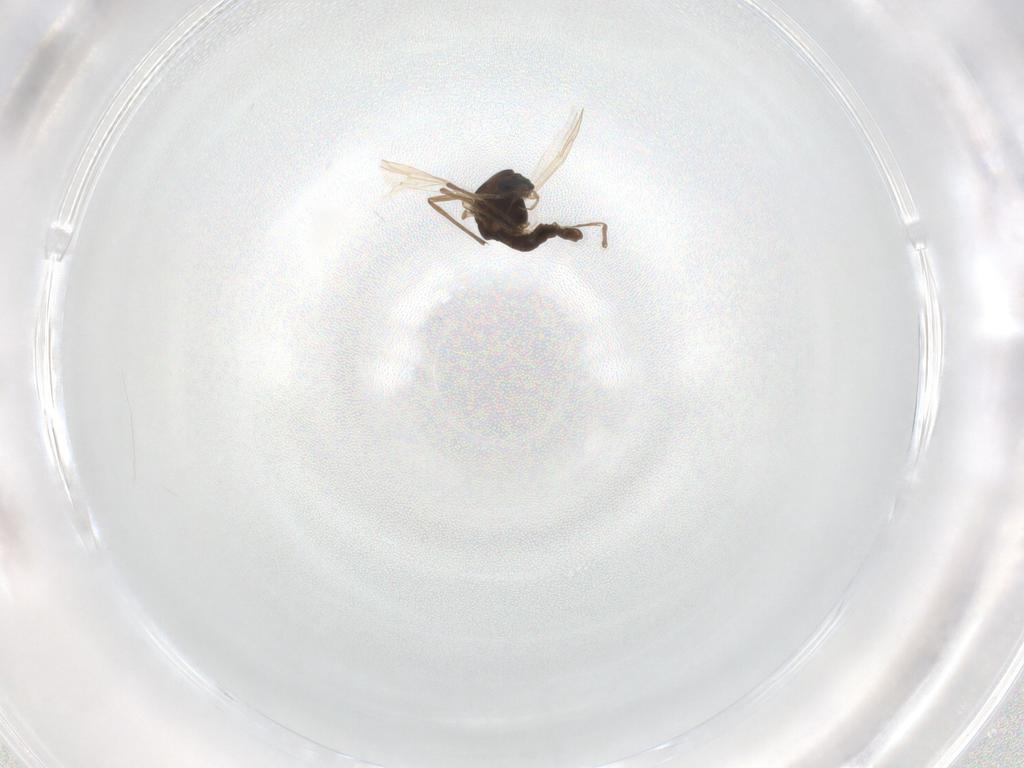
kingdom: Animalia
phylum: Arthropoda
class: Insecta
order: Diptera
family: Chironomidae
